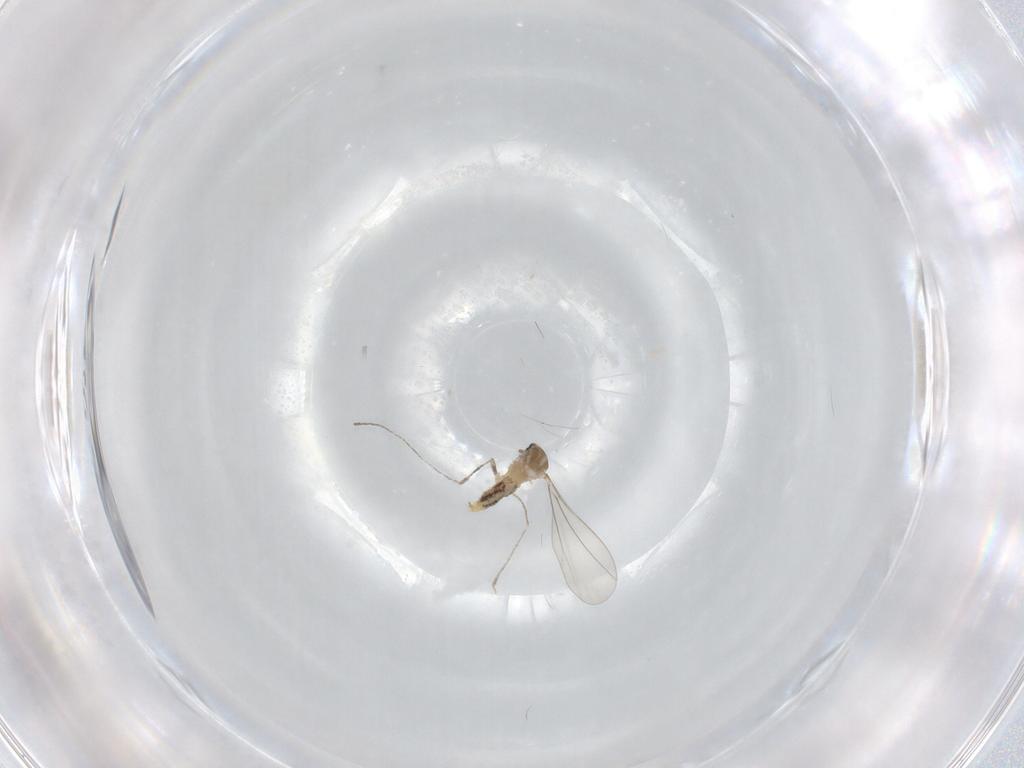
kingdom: Animalia
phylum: Arthropoda
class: Insecta
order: Diptera
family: Cecidomyiidae
